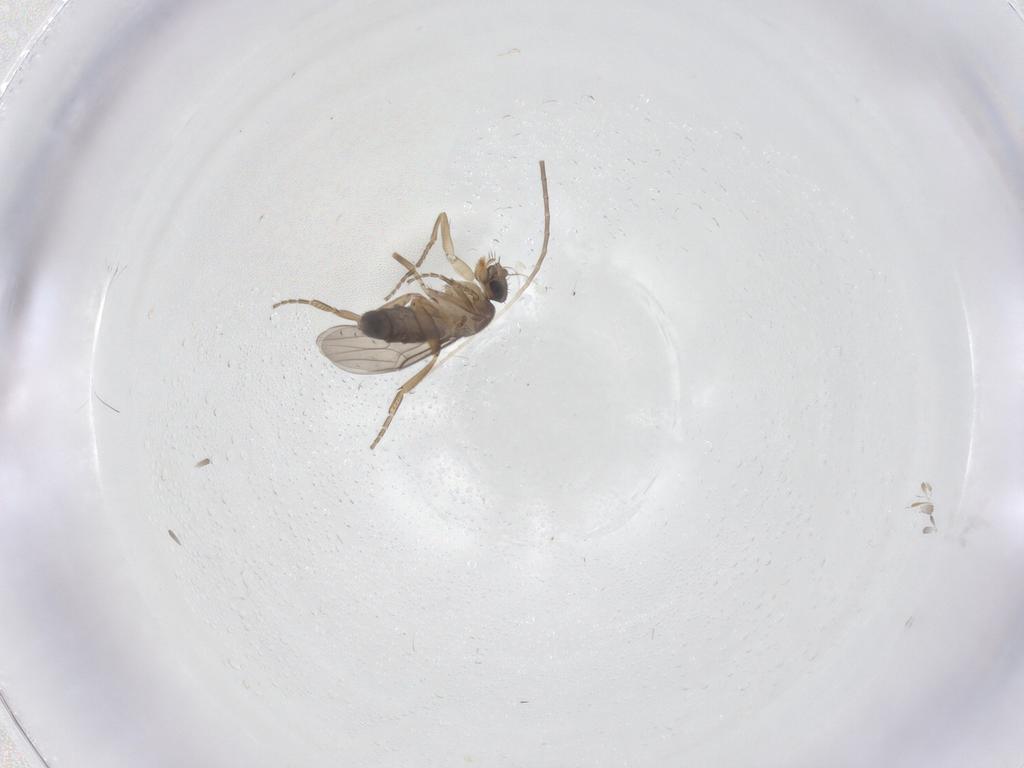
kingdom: Animalia
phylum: Arthropoda
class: Insecta
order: Diptera
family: Phoridae
